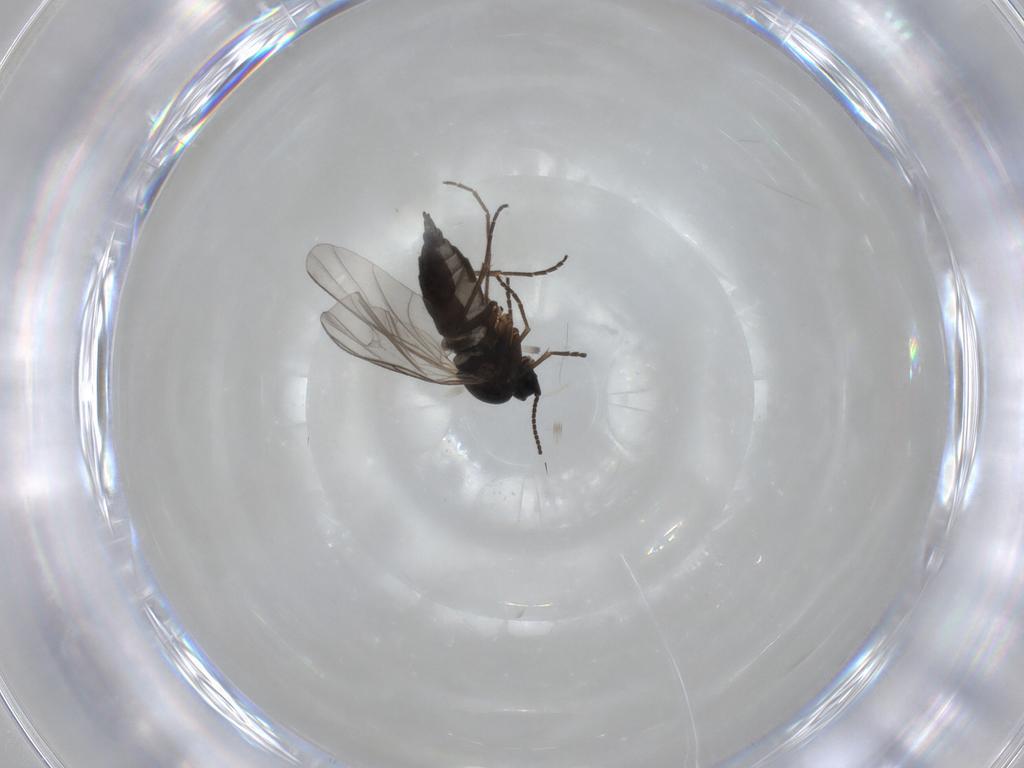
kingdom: Animalia
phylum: Arthropoda
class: Insecta
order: Diptera
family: Sciaridae
